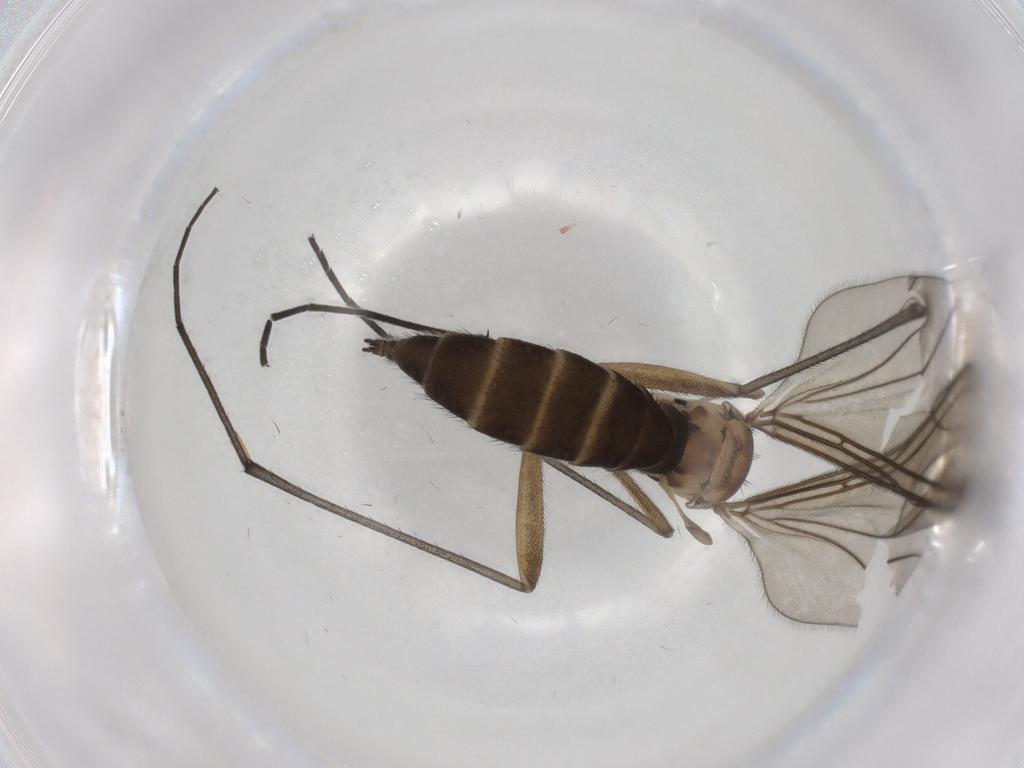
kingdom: Animalia
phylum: Arthropoda
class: Insecta
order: Diptera
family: Sciaridae
